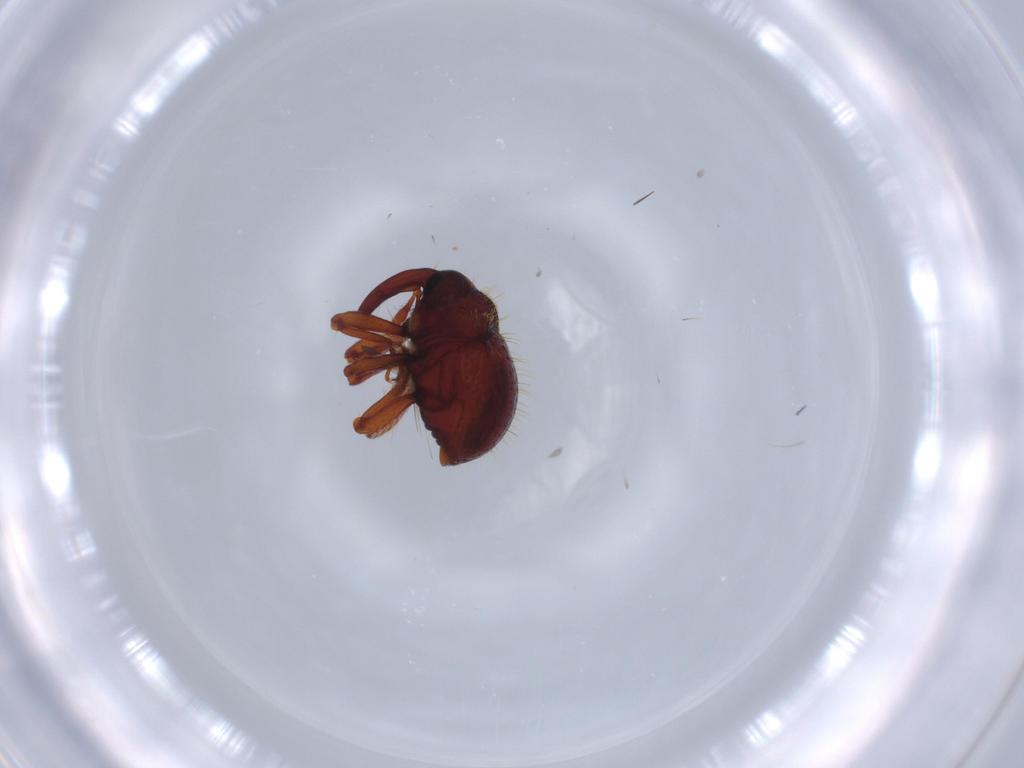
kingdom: Animalia
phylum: Arthropoda
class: Insecta
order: Coleoptera
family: Curculionidae
